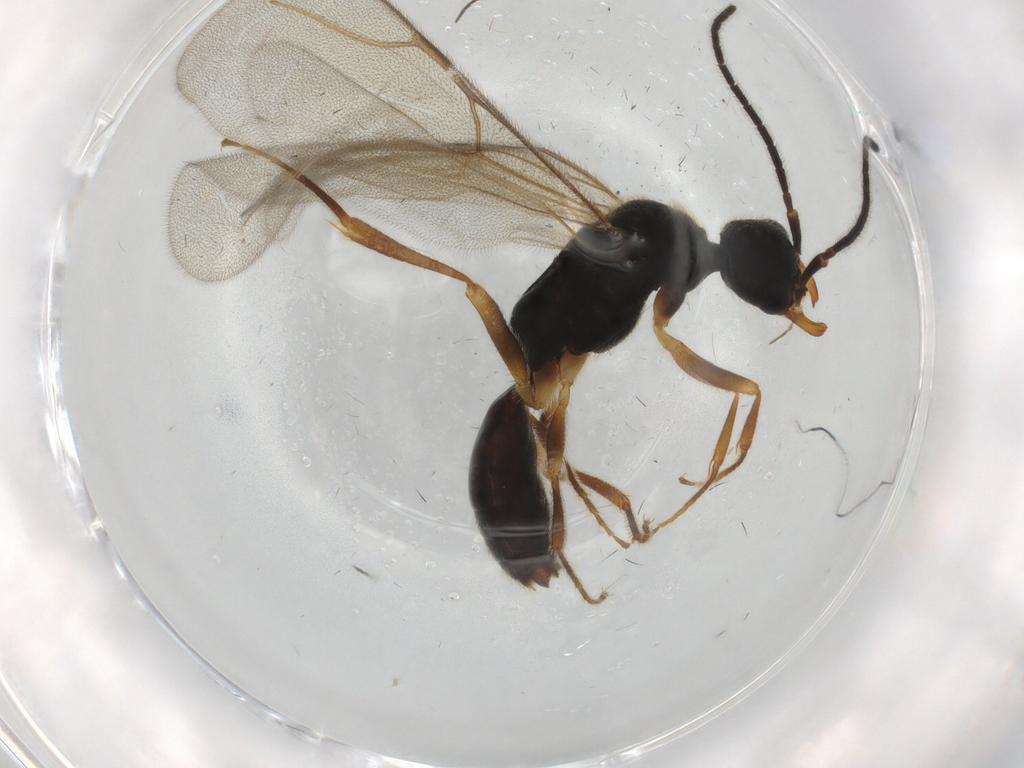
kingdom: Animalia
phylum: Arthropoda
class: Insecta
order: Hymenoptera
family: Bethylidae
